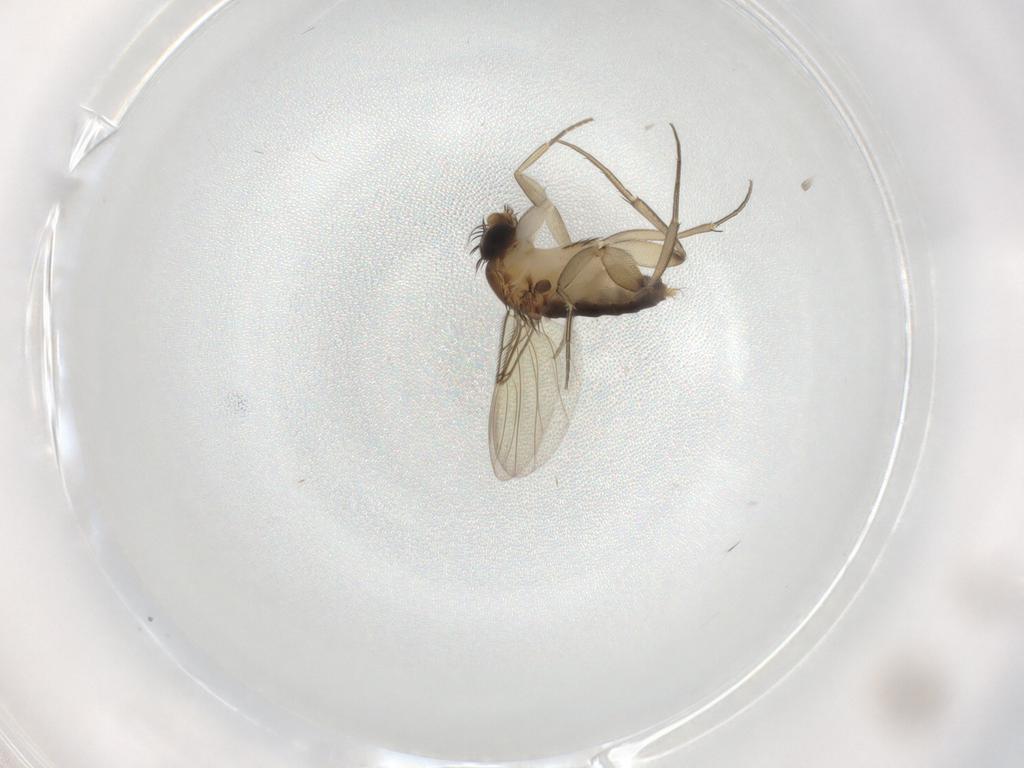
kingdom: Animalia
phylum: Arthropoda
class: Insecta
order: Diptera
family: Phoridae
